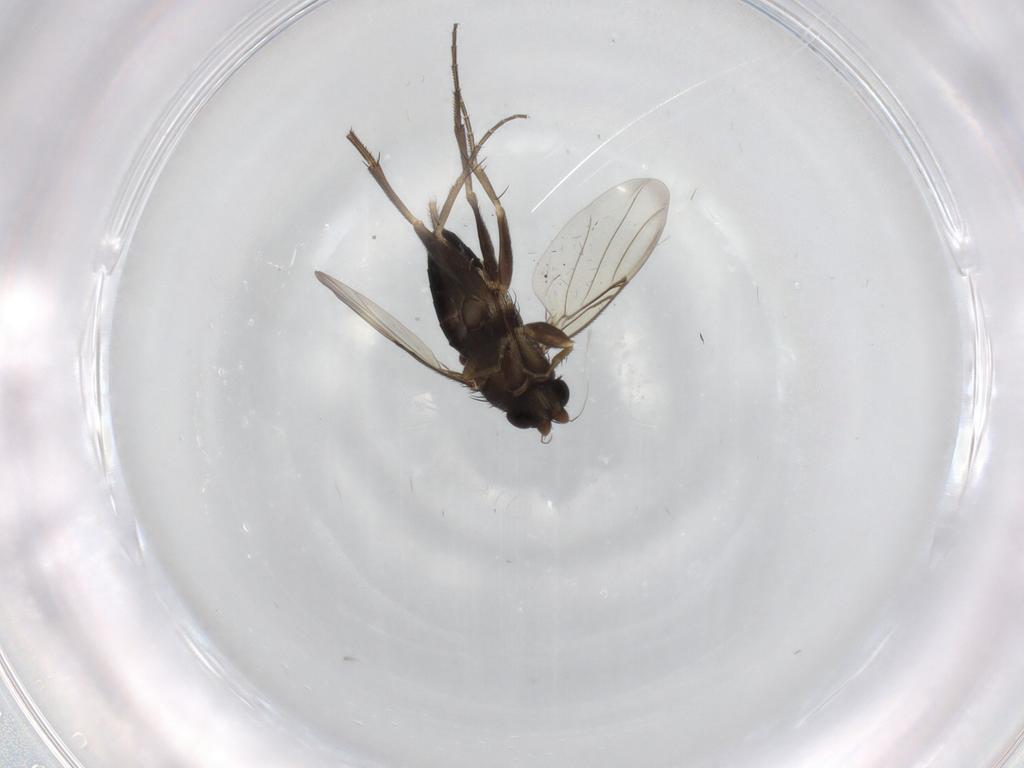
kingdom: Animalia
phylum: Arthropoda
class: Insecta
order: Diptera
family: Phoridae
